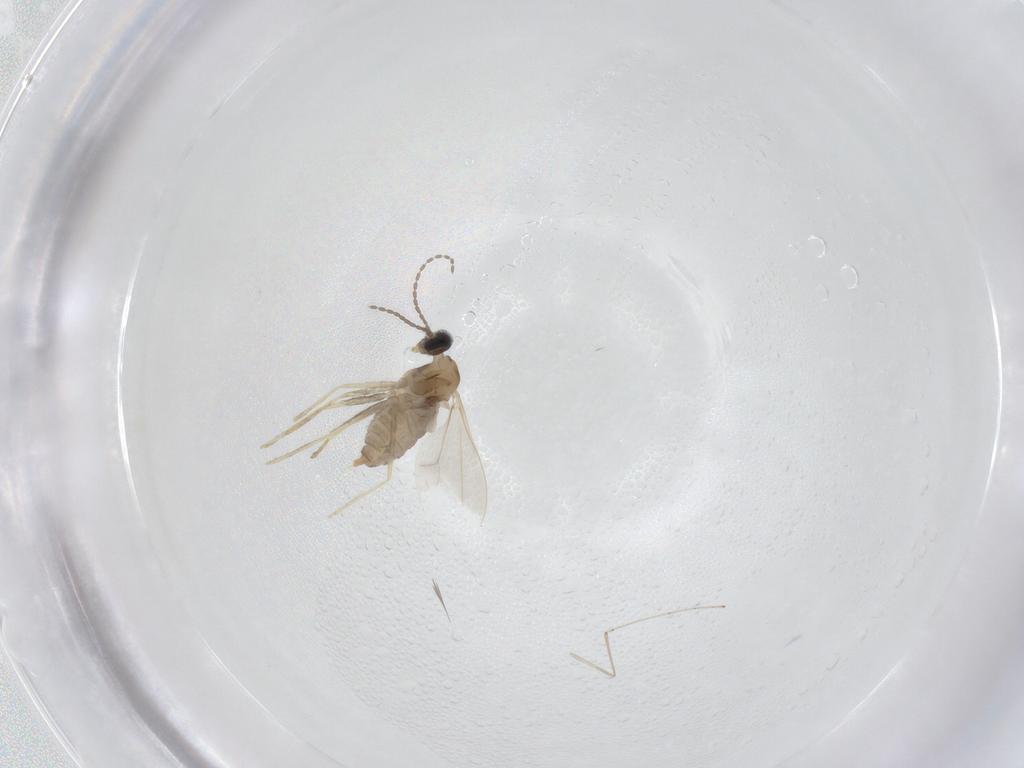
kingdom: Animalia
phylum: Arthropoda
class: Insecta
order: Diptera
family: Cecidomyiidae
